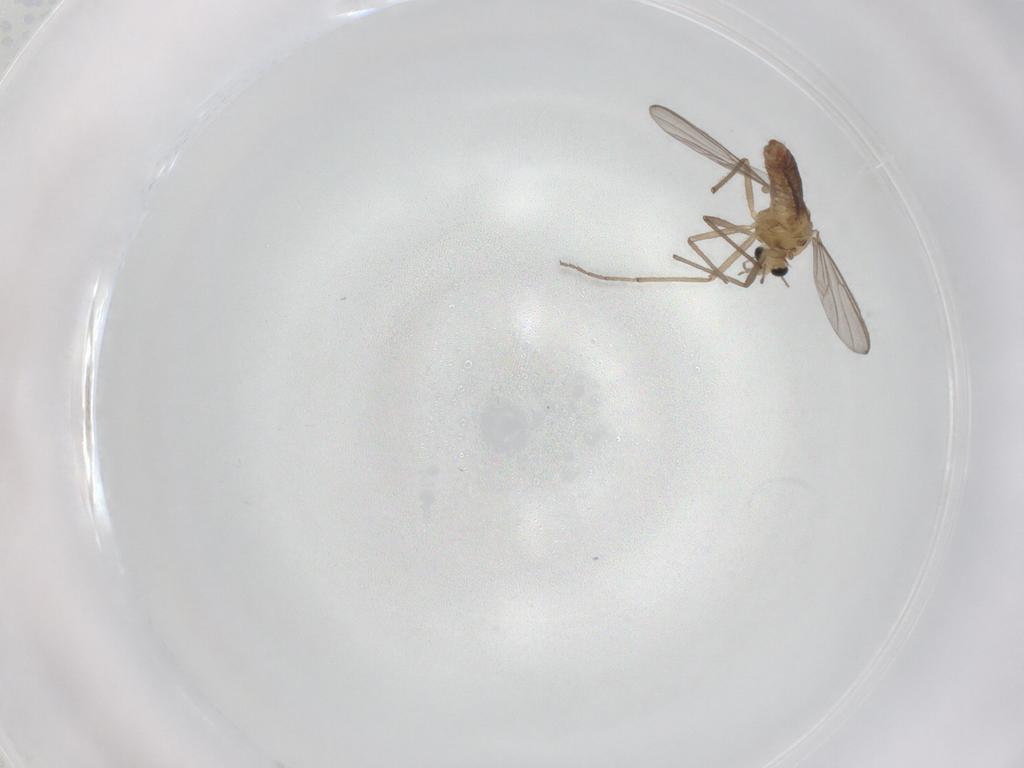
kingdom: Animalia
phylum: Arthropoda
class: Insecta
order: Diptera
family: Chironomidae
